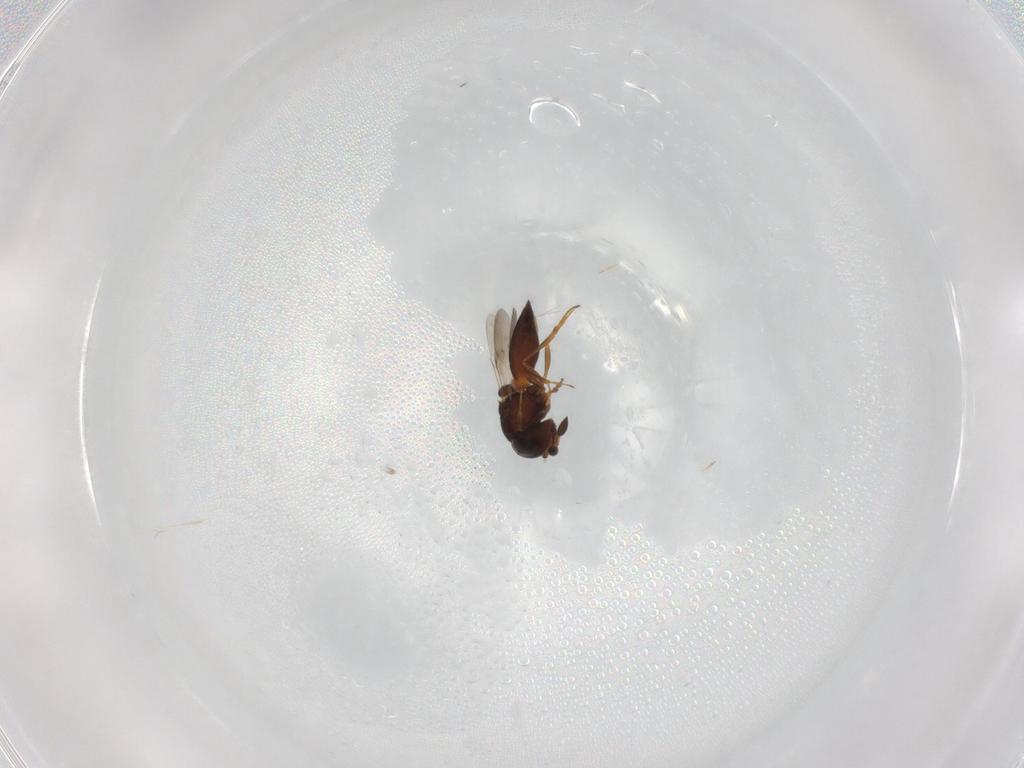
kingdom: Animalia
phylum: Arthropoda
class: Insecta
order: Hymenoptera
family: Scelionidae
